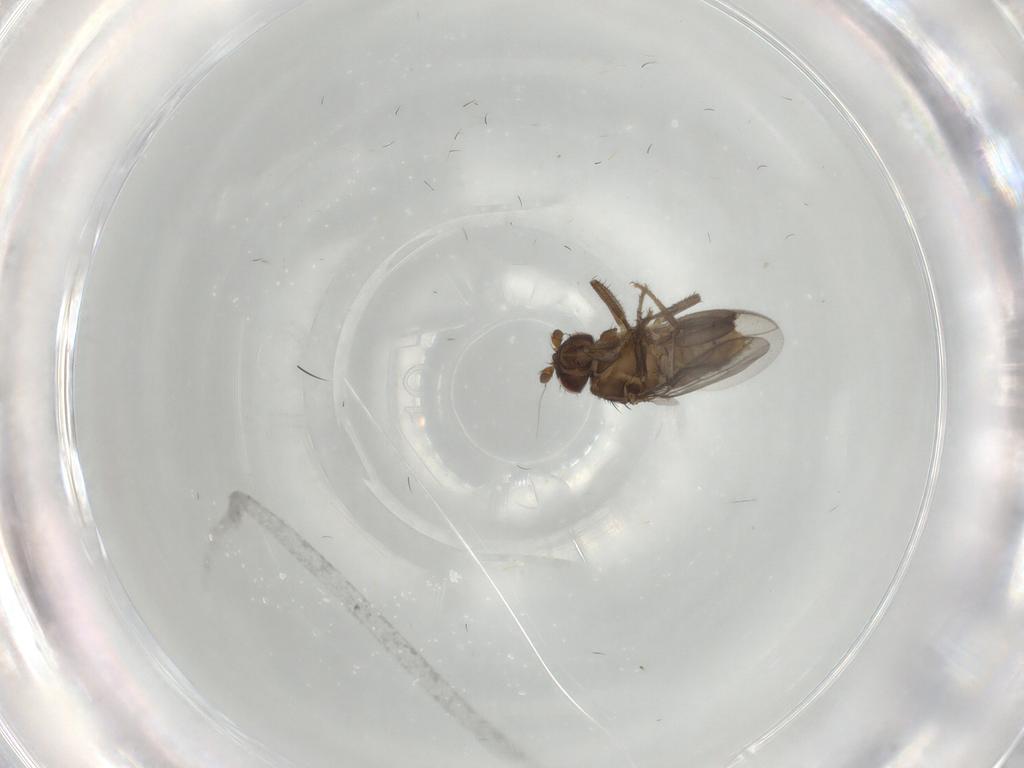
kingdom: Animalia
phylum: Arthropoda
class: Insecta
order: Diptera
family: Sphaeroceridae
